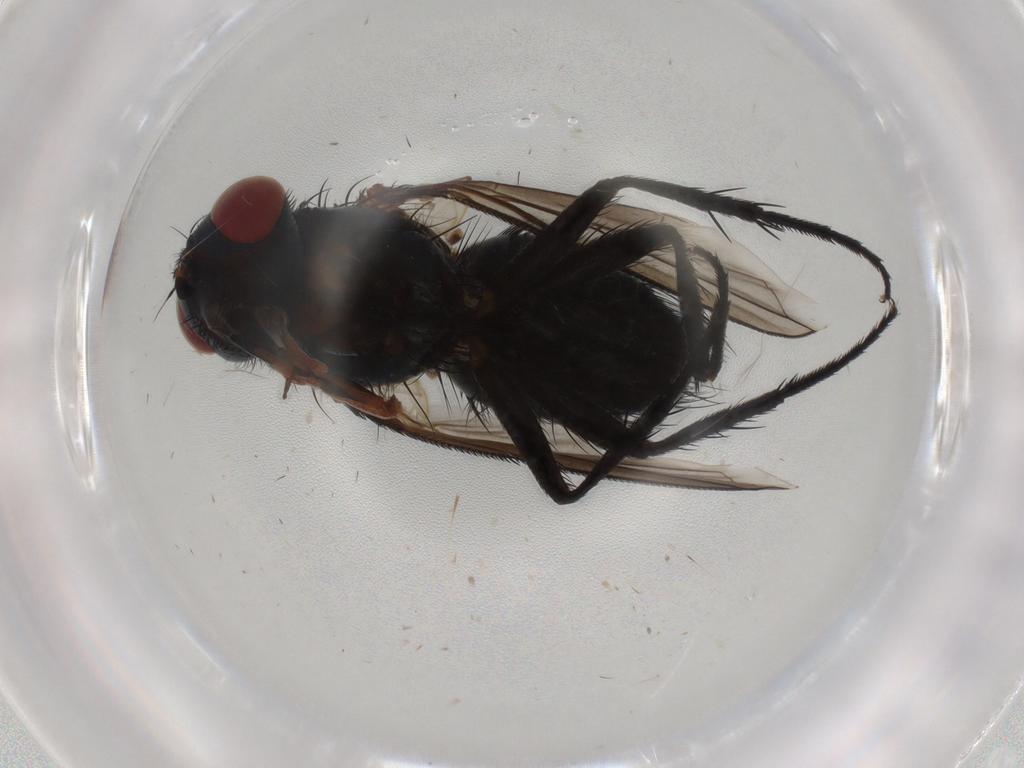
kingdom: Animalia
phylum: Arthropoda
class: Insecta
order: Diptera
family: Tachinidae
